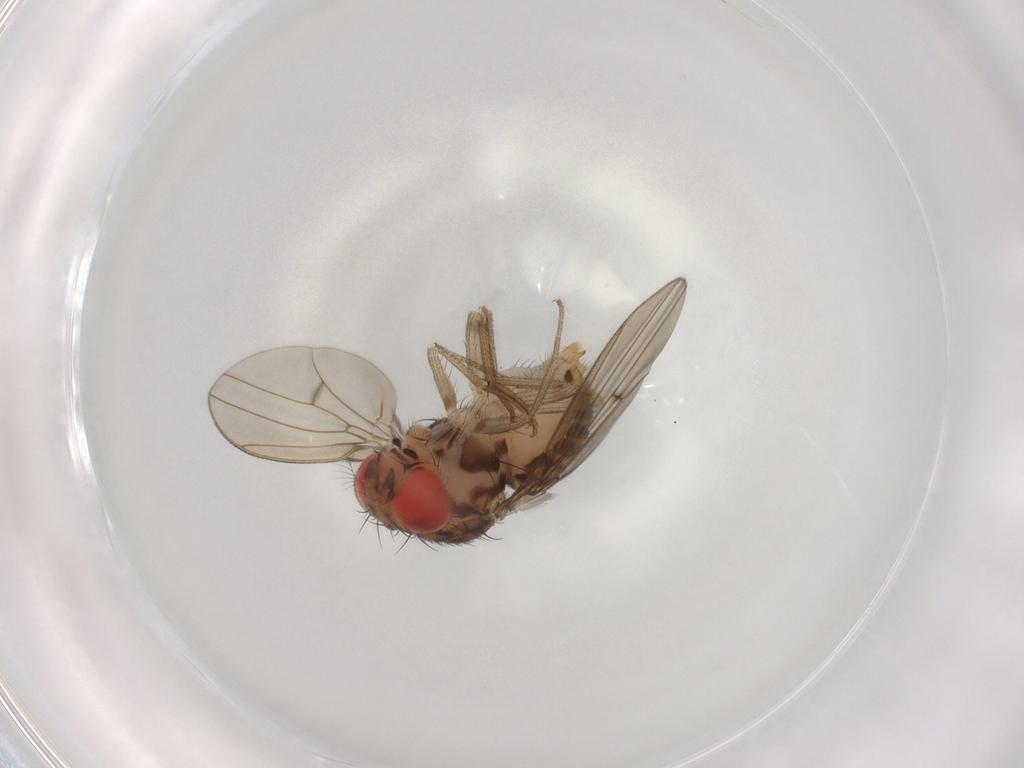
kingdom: Animalia
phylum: Arthropoda
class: Insecta
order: Diptera
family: Drosophilidae
